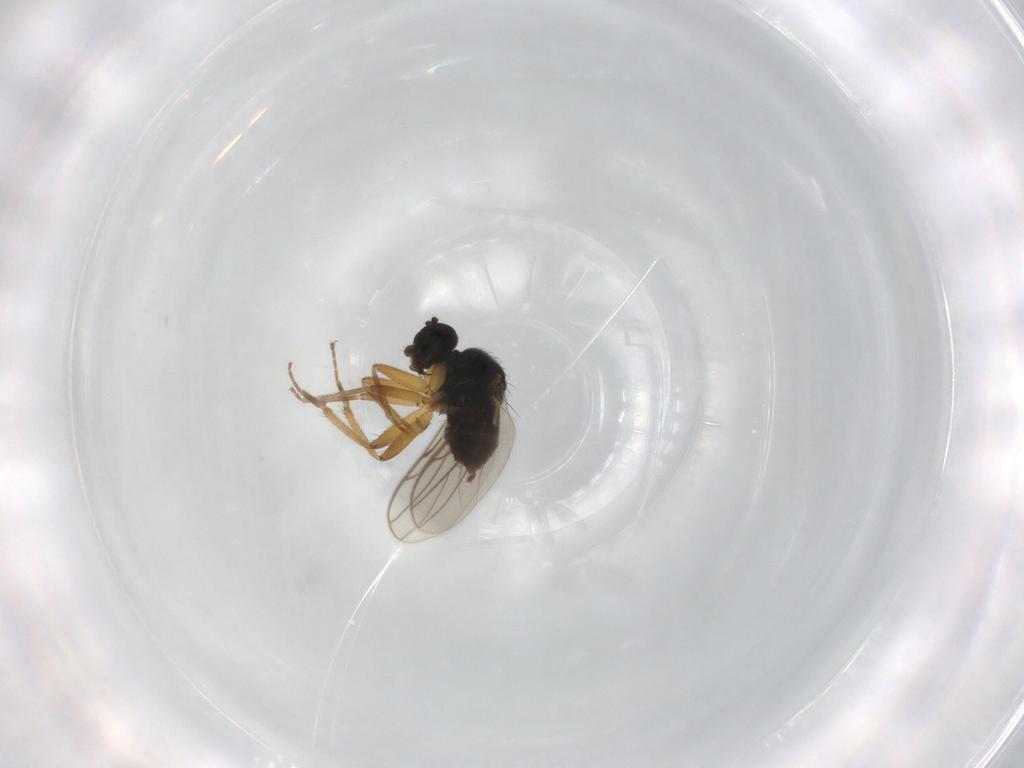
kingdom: Animalia
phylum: Arthropoda
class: Insecta
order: Diptera
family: Hybotidae
